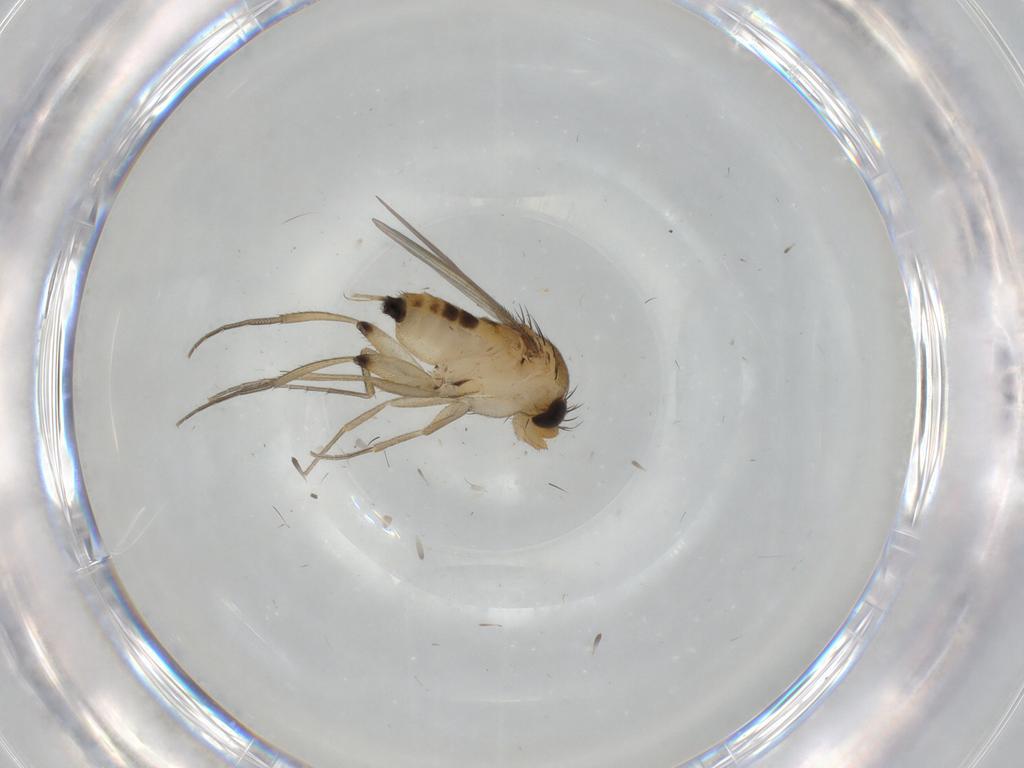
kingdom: Animalia
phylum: Arthropoda
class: Insecta
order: Diptera
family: Phoridae
